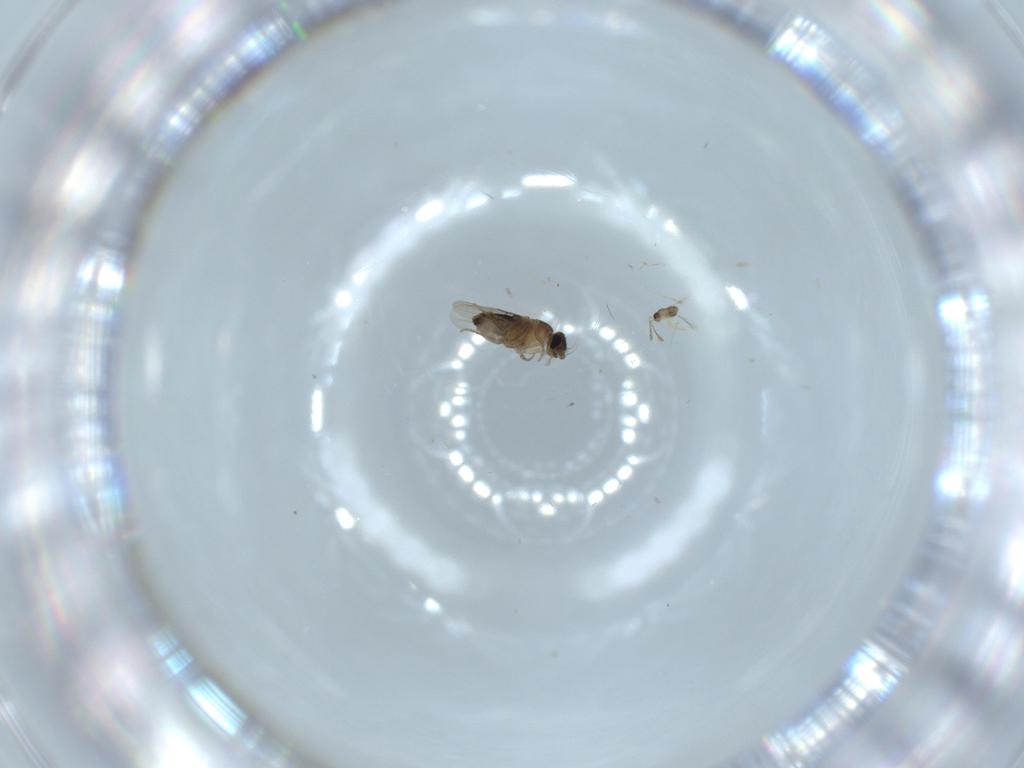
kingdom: Animalia
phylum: Arthropoda
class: Insecta
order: Diptera
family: Phoridae
